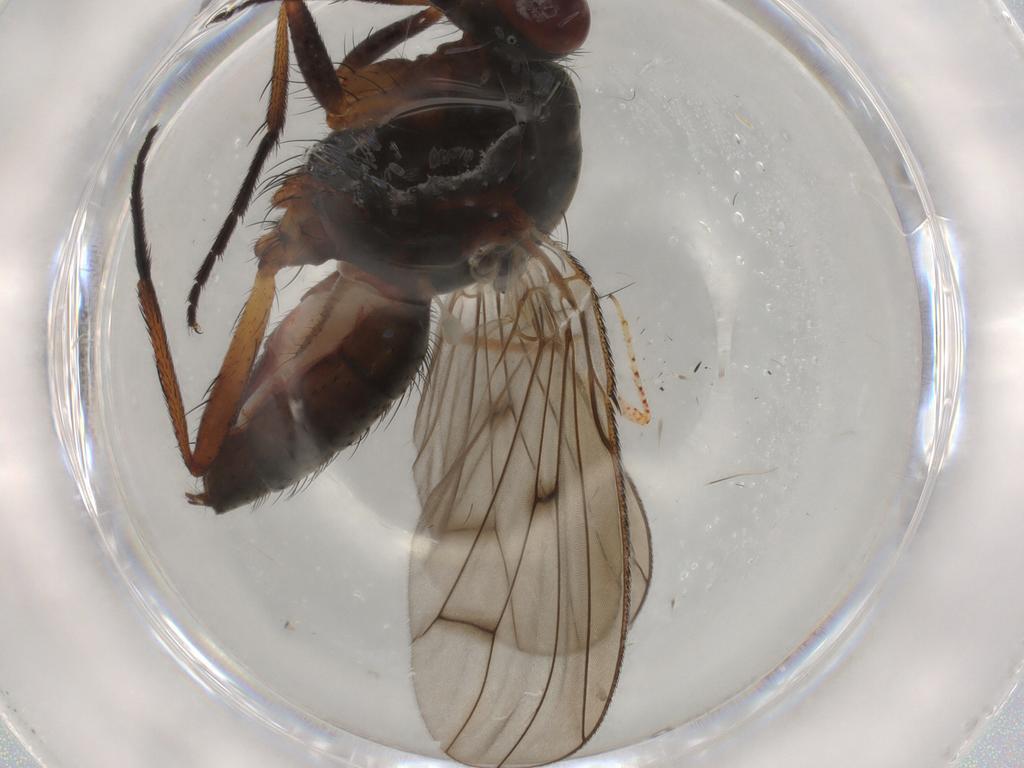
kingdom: Animalia
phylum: Arthropoda
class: Insecta
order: Diptera
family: Anthomyiidae
